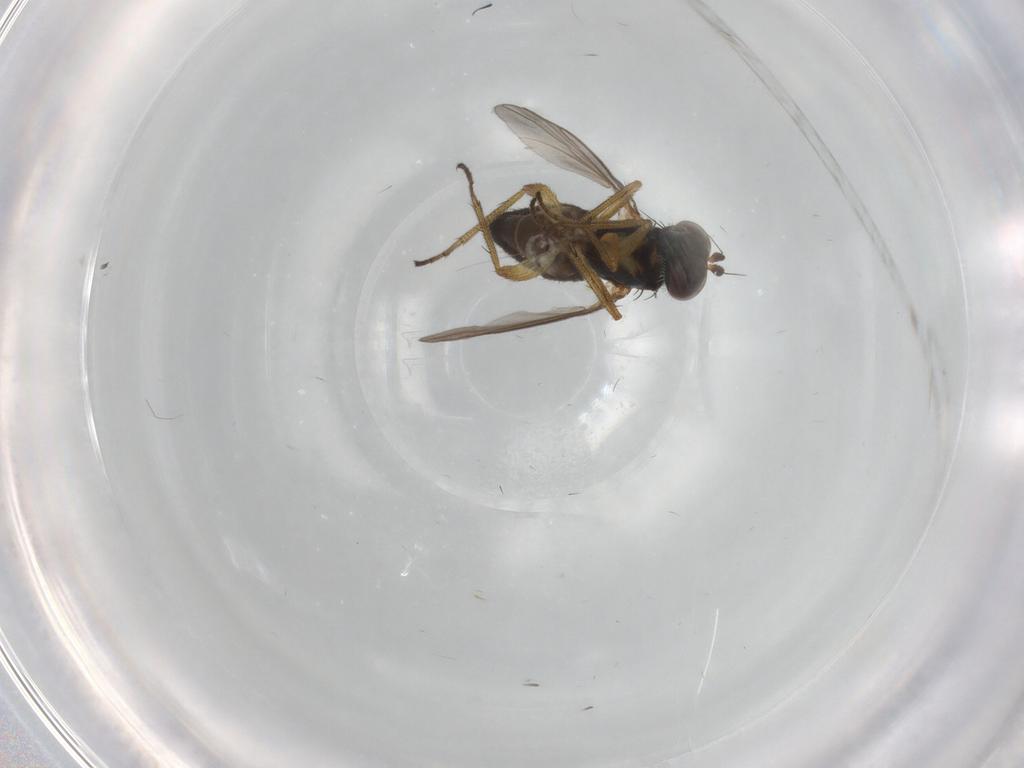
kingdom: Animalia
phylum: Arthropoda
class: Insecta
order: Diptera
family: Limoniidae
